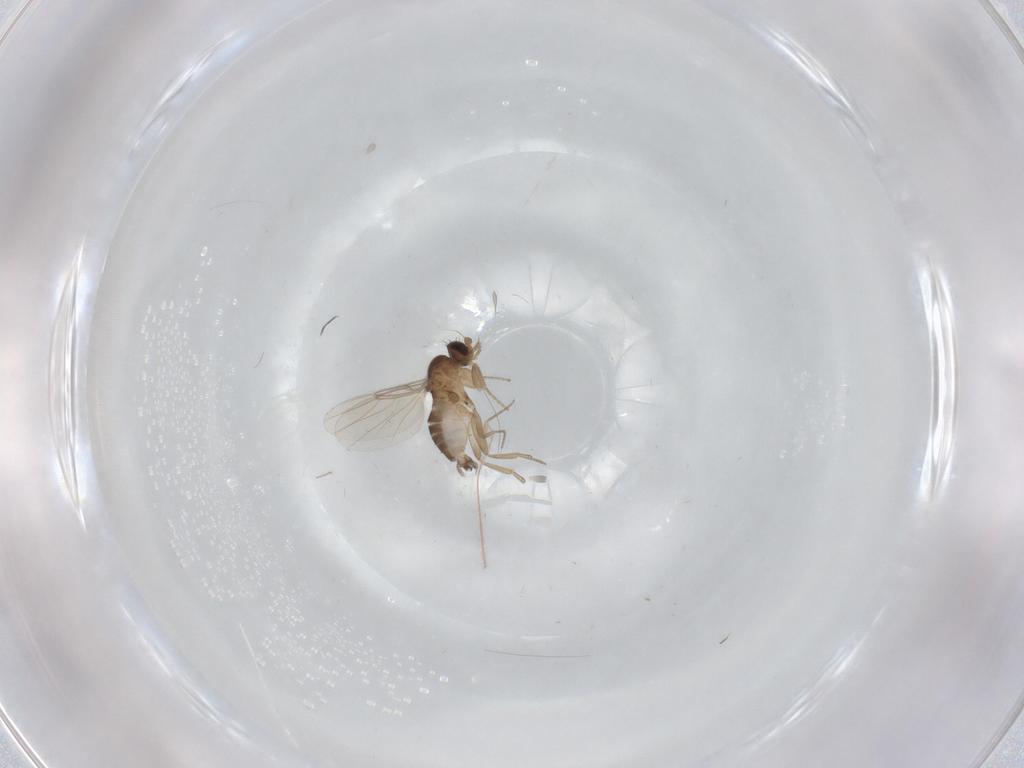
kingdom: Animalia
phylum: Arthropoda
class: Insecta
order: Diptera
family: Phoridae
